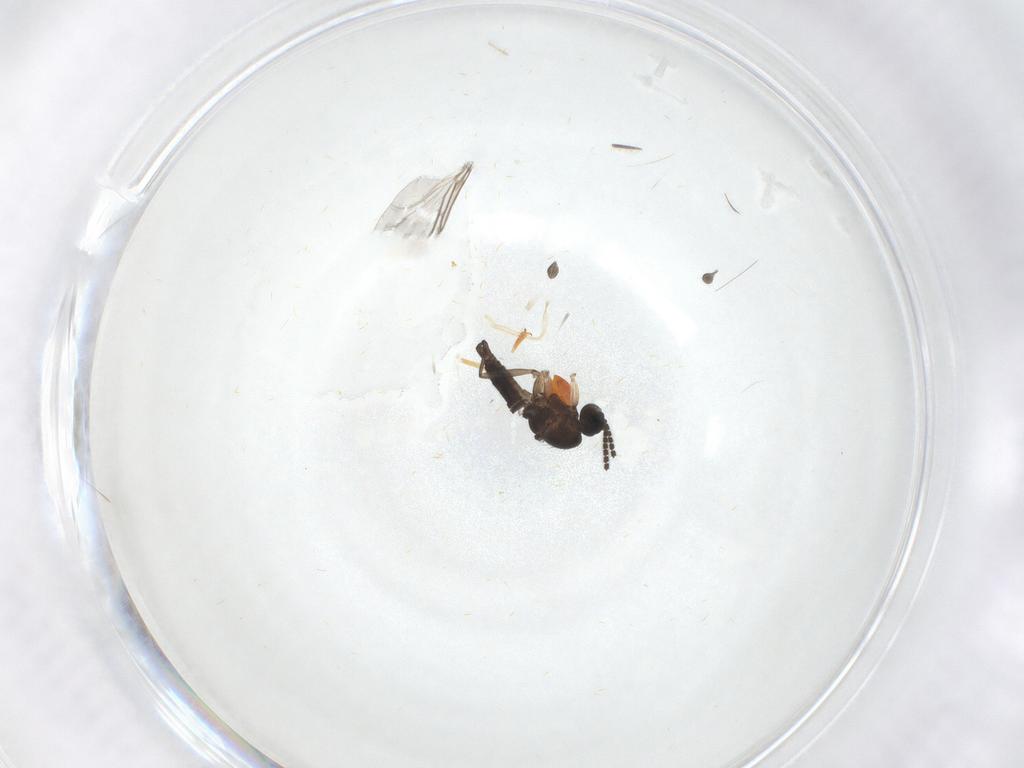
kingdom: Animalia
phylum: Arthropoda
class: Insecta
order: Diptera
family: Sciaridae
